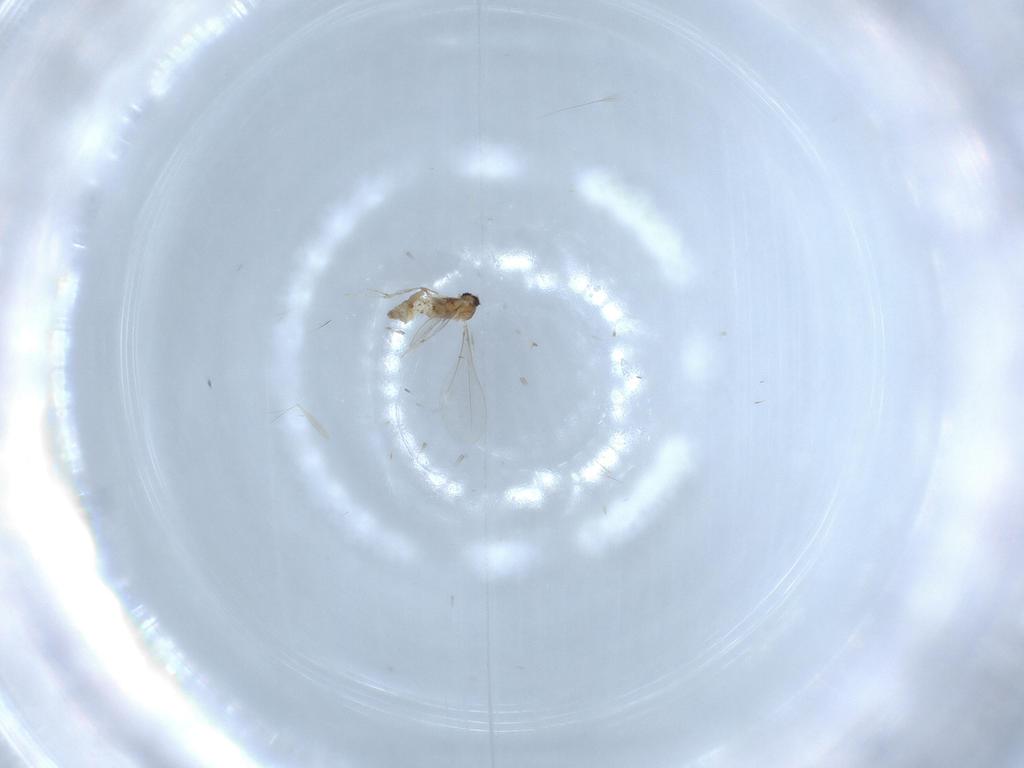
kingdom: Animalia
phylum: Arthropoda
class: Insecta
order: Diptera
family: Cecidomyiidae
